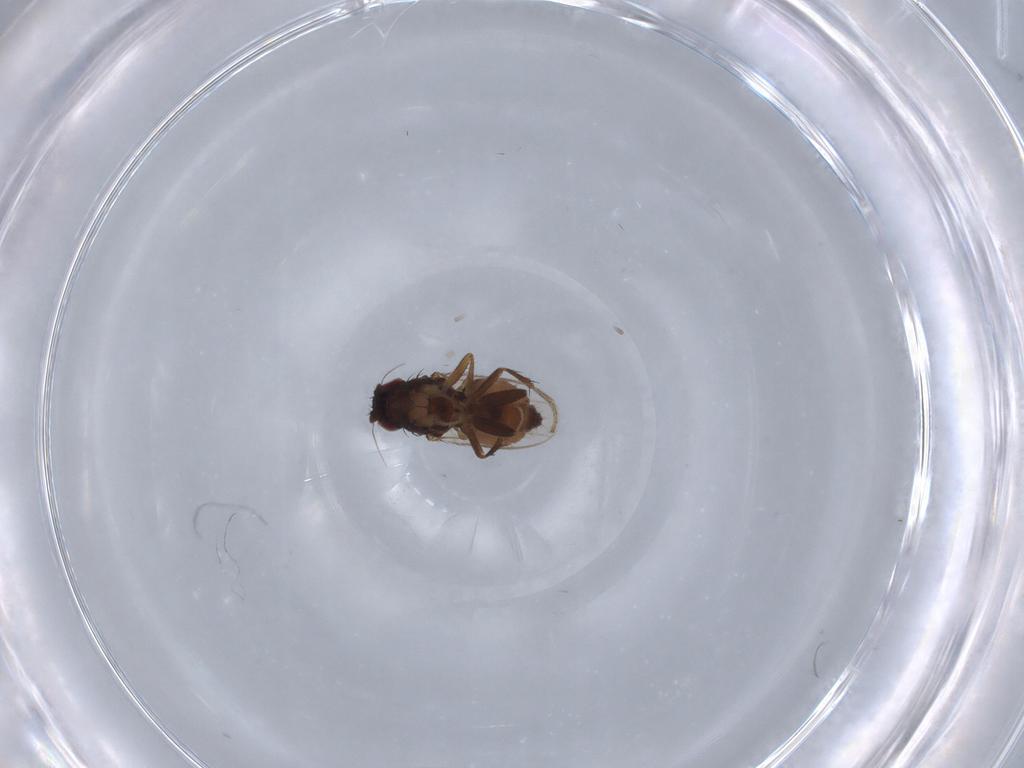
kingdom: Animalia
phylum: Arthropoda
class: Insecta
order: Diptera
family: Sphaeroceridae
